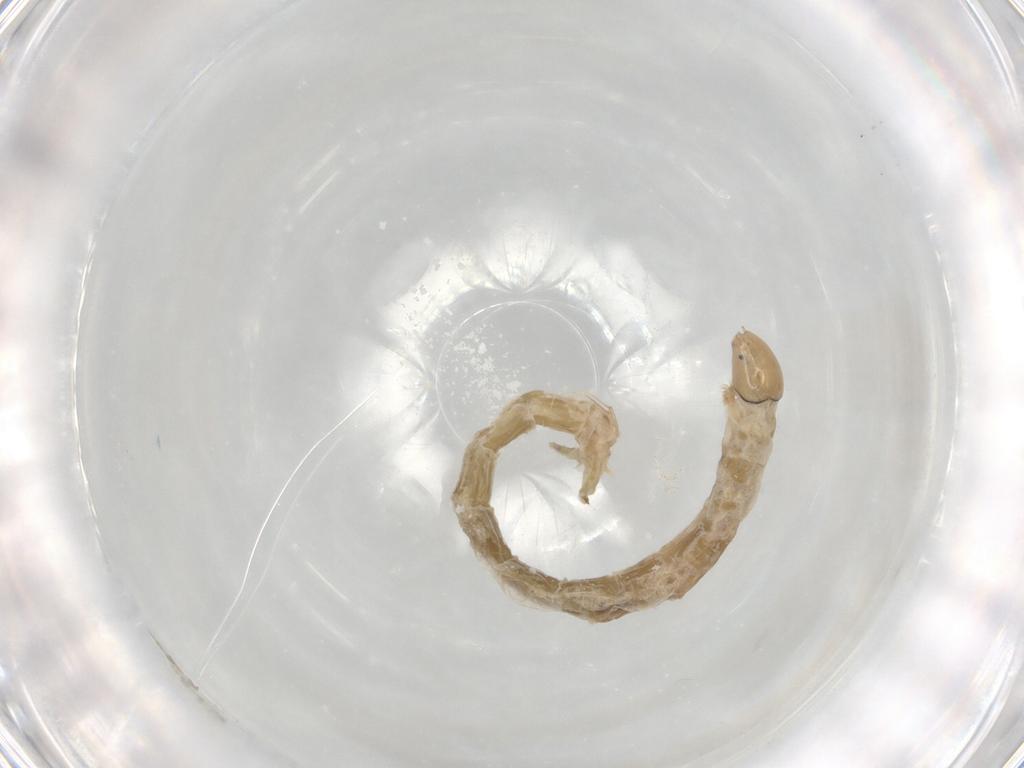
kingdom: Animalia
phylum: Arthropoda
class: Insecta
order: Diptera
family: Chironomidae
